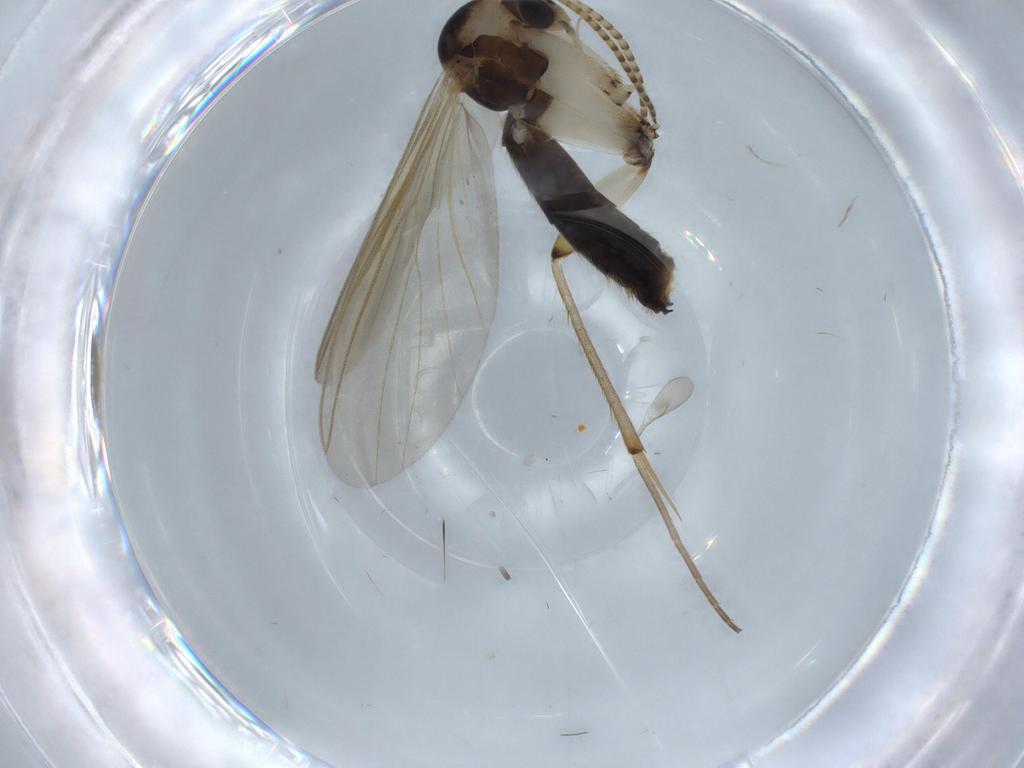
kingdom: Animalia
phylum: Arthropoda
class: Insecta
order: Diptera
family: Mycetophilidae
